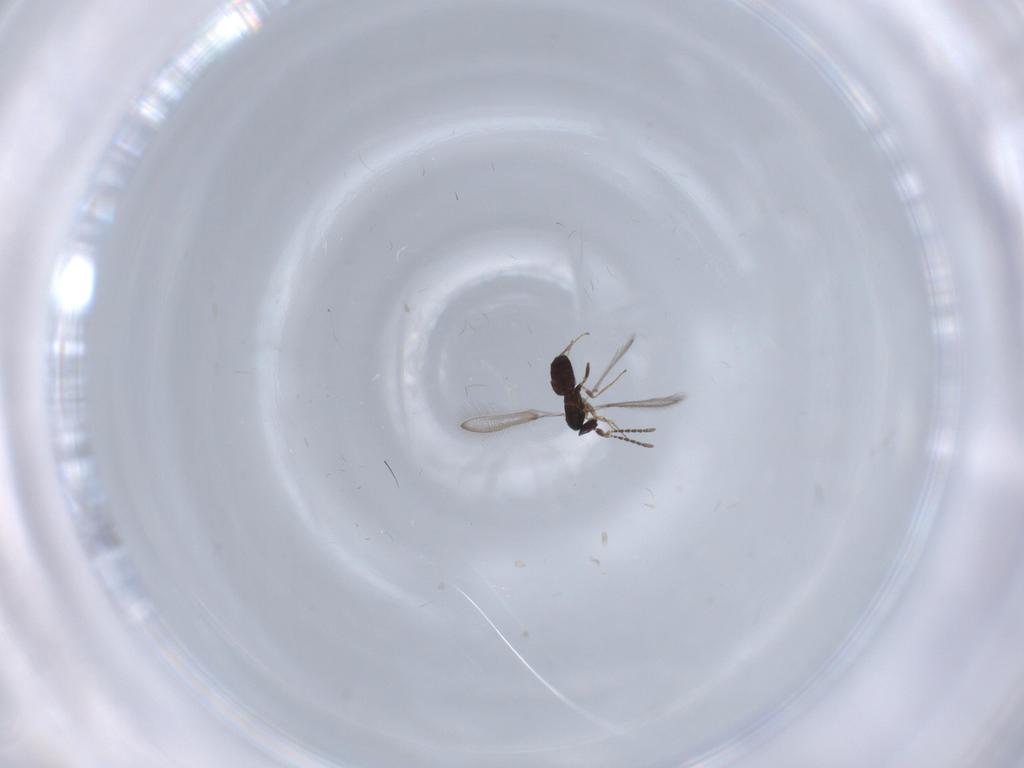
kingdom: Animalia
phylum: Arthropoda
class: Insecta
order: Hymenoptera
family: Mymaridae
